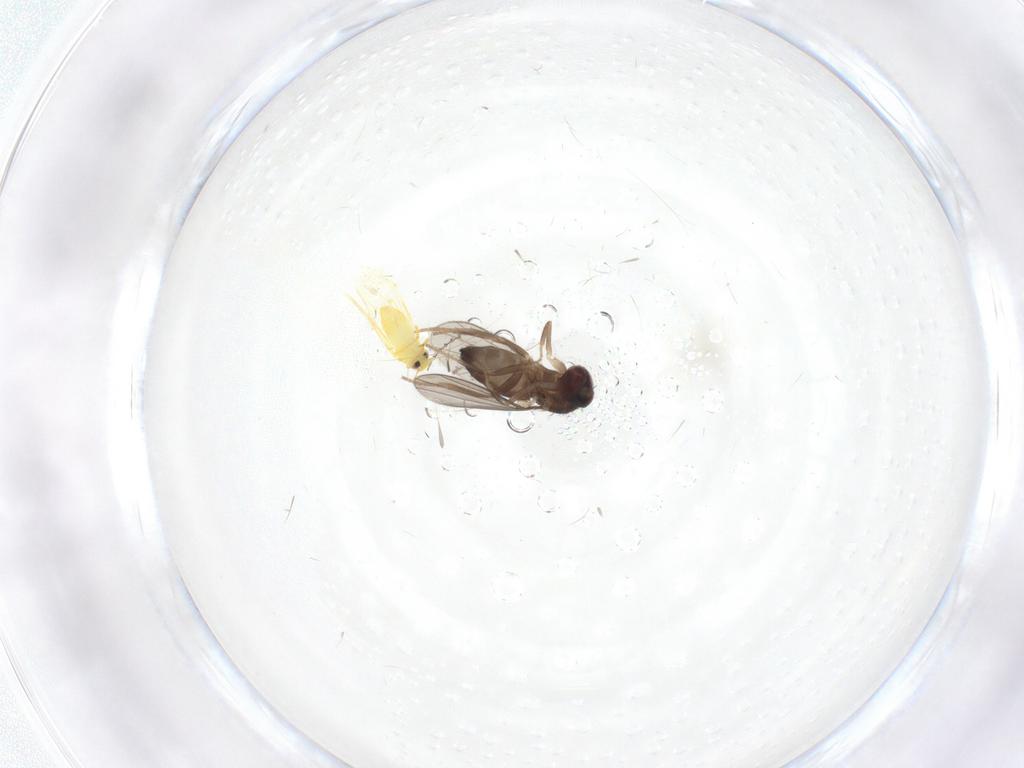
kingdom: Animalia
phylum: Arthropoda
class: Insecta
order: Diptera
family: Dolichopodidae
